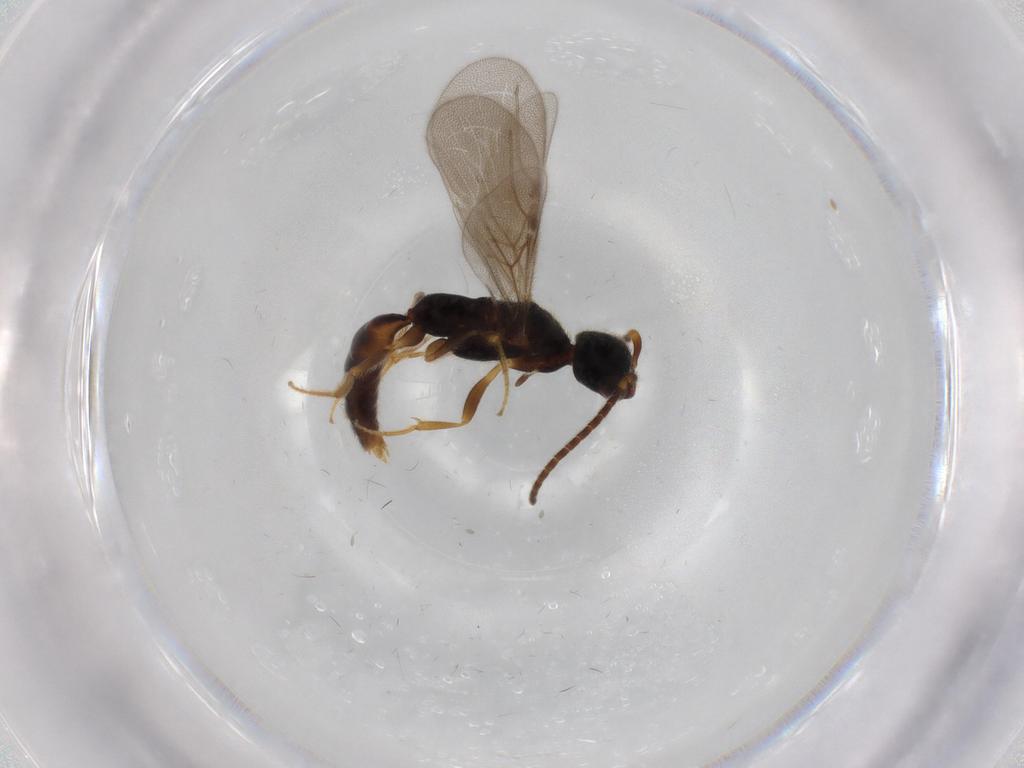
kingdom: Animalia
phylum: Arthropoda
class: Insecta
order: Hymenoptera
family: Bethylidae
